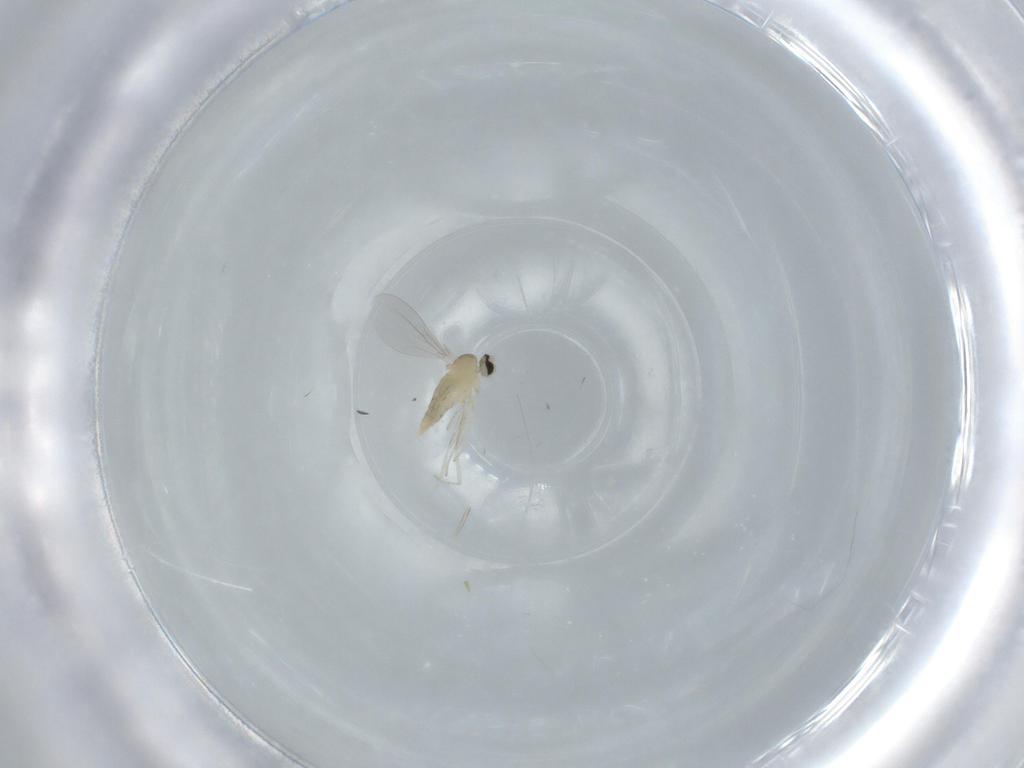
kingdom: Animalia
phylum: Arthropoda
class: Insecta
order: Diptera
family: Cecidomyiidae
